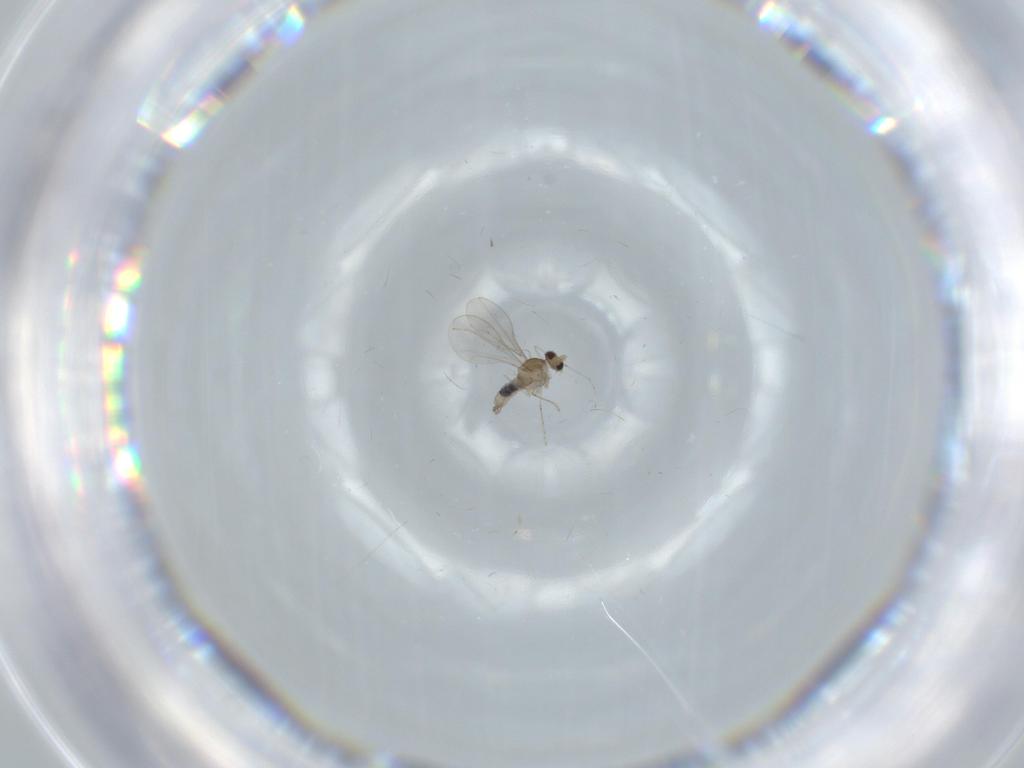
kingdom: Animalia
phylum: Arthropoda
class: Insecta
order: Diptera
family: Cecidomyiidae
